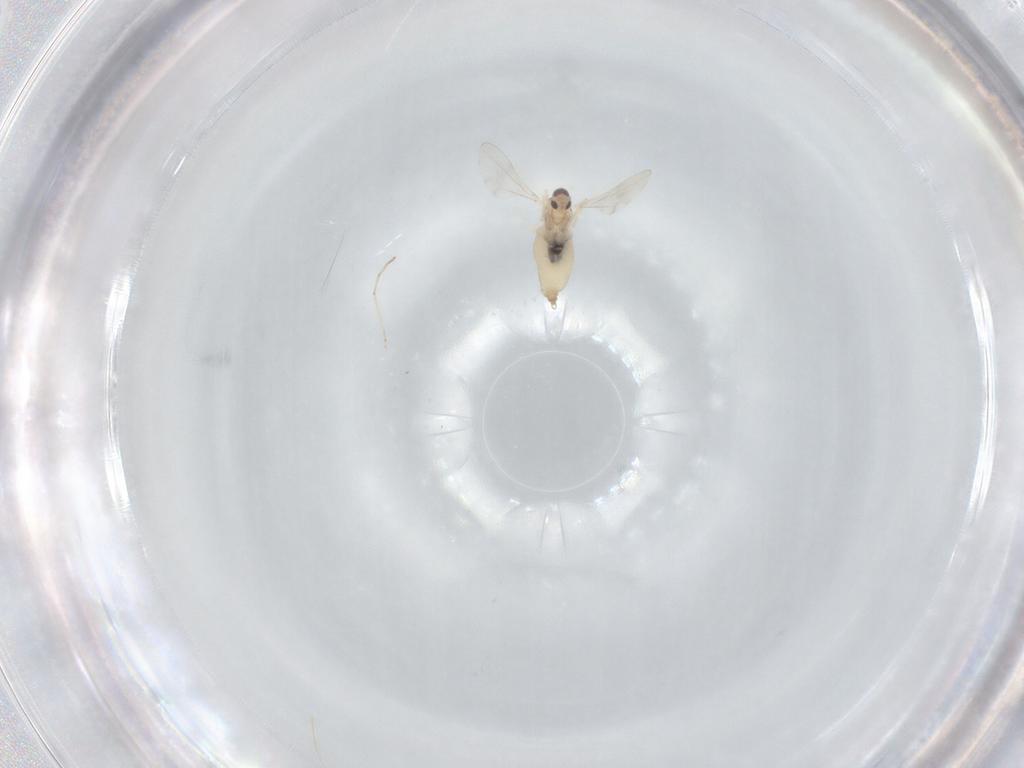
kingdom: Animalia
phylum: Arthropoda
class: Insecta
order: Diptera
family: Cecidomyiidae
